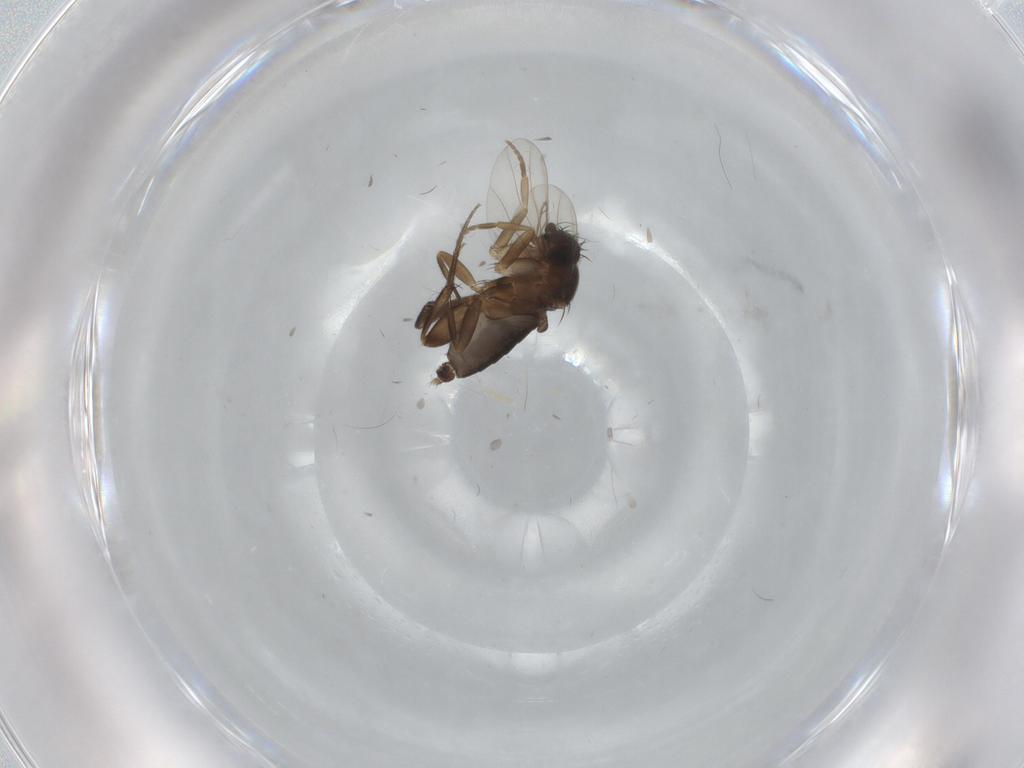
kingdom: Animalia
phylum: Arthropoda
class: Insecta
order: Diptera
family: Phoridae
